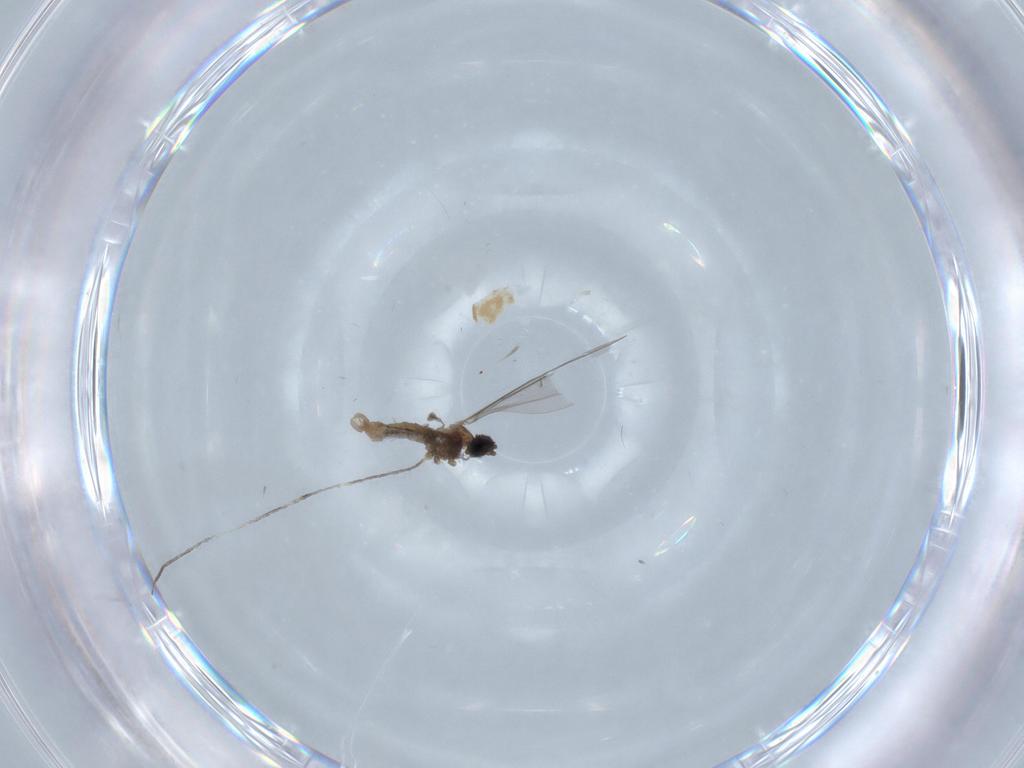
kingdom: Animalia
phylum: Arthropoda
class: Insecta
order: Diptera
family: Cecidomyiidae
